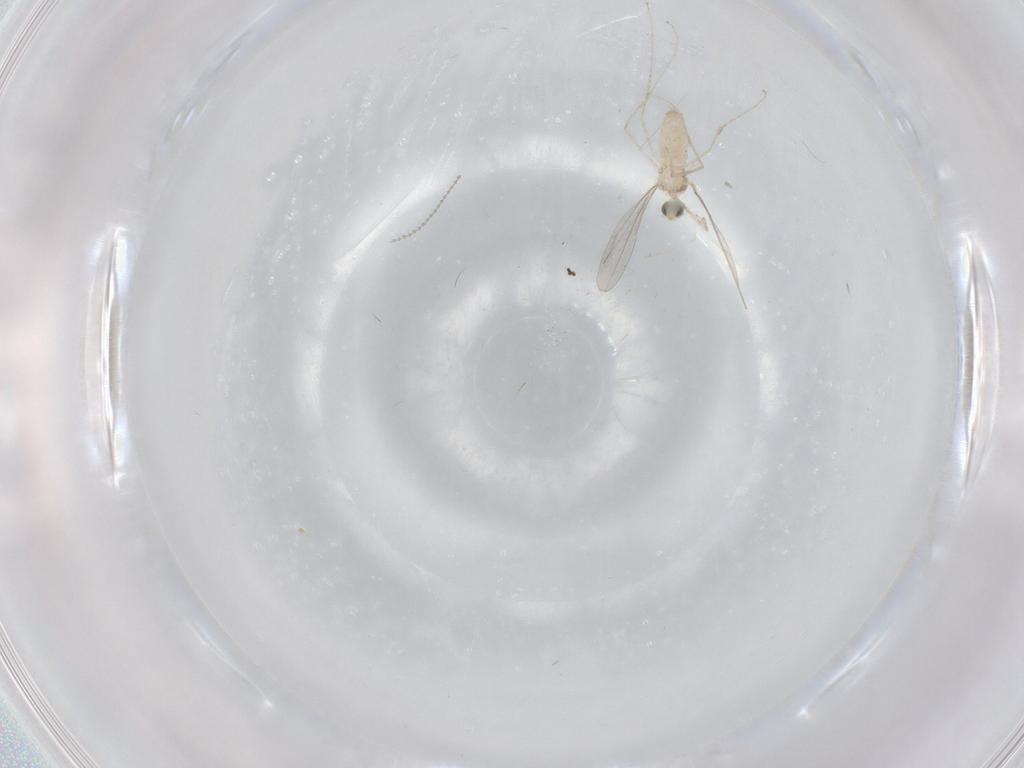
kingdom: Animalia
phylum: Arthropoda
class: Insecta
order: Diptera
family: Cecidomyiidae
